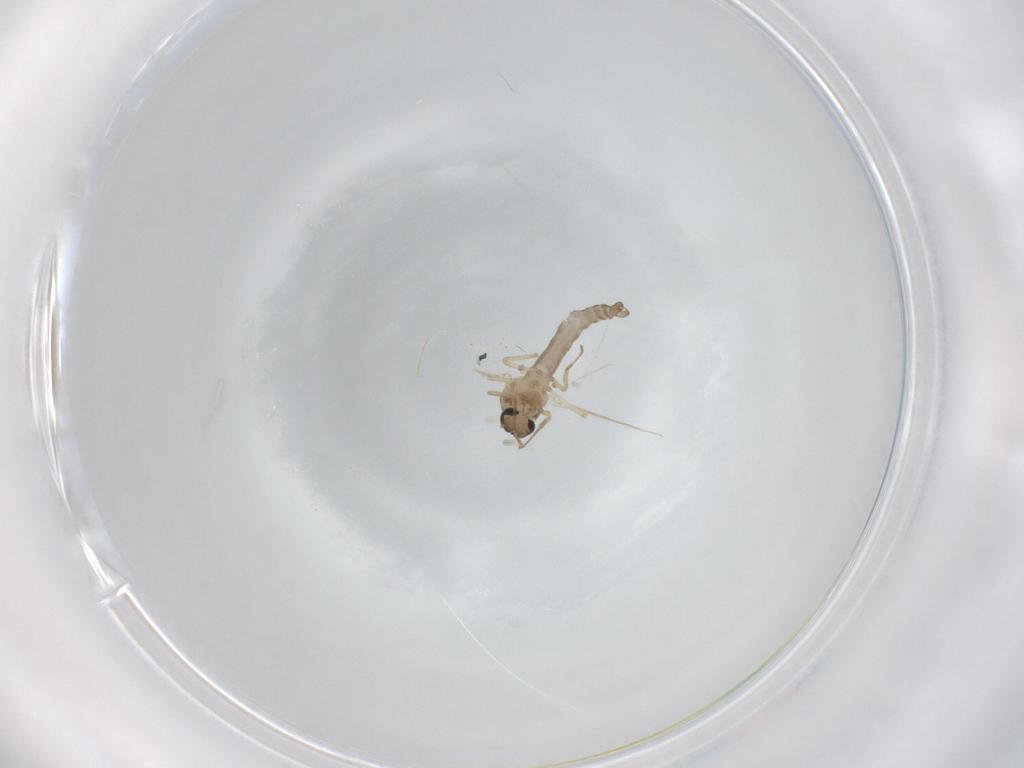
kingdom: Animalia
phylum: Arthropoda
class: Insecta
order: Diptera
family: Ceratopogonidae
